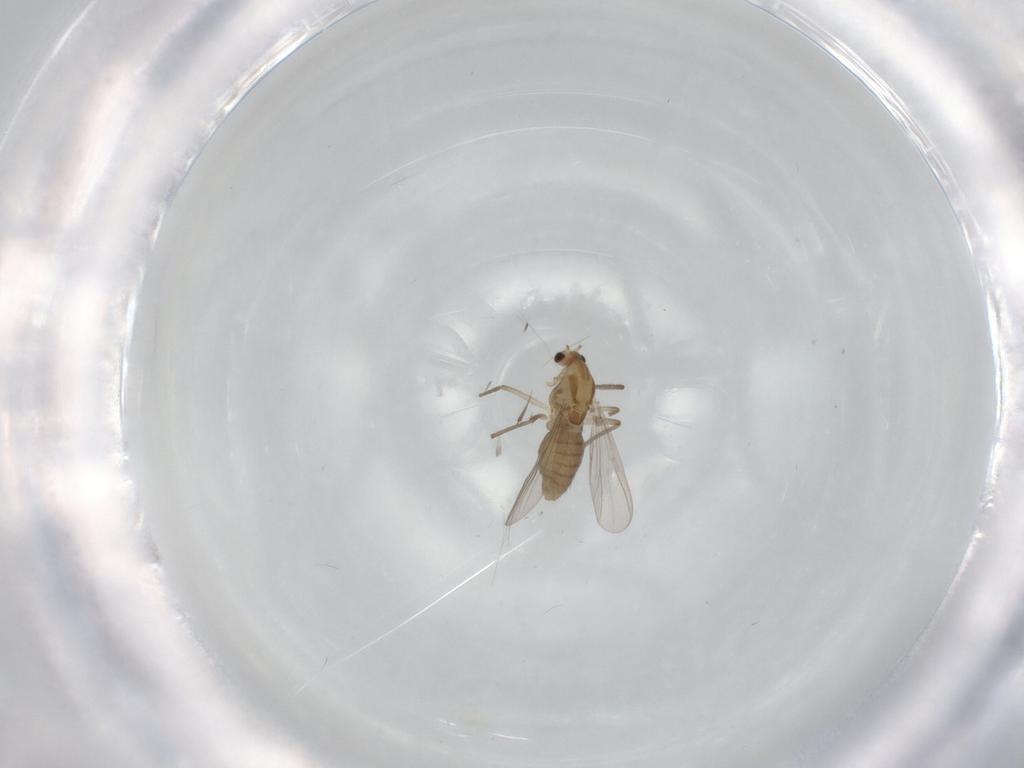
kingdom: Animalia
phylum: Arthropoda
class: Insecta
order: Diptera
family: Chironomidae
